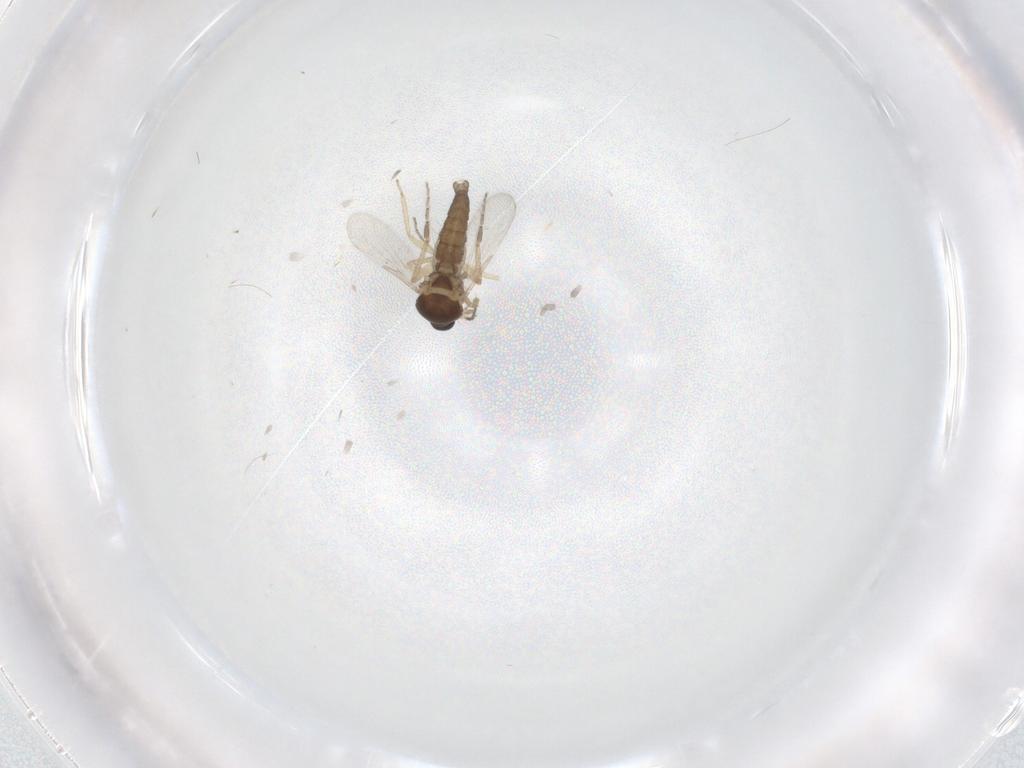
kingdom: Animalia
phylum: Arthropoda
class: Insecta
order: Diptera
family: Ceratopogonidae
